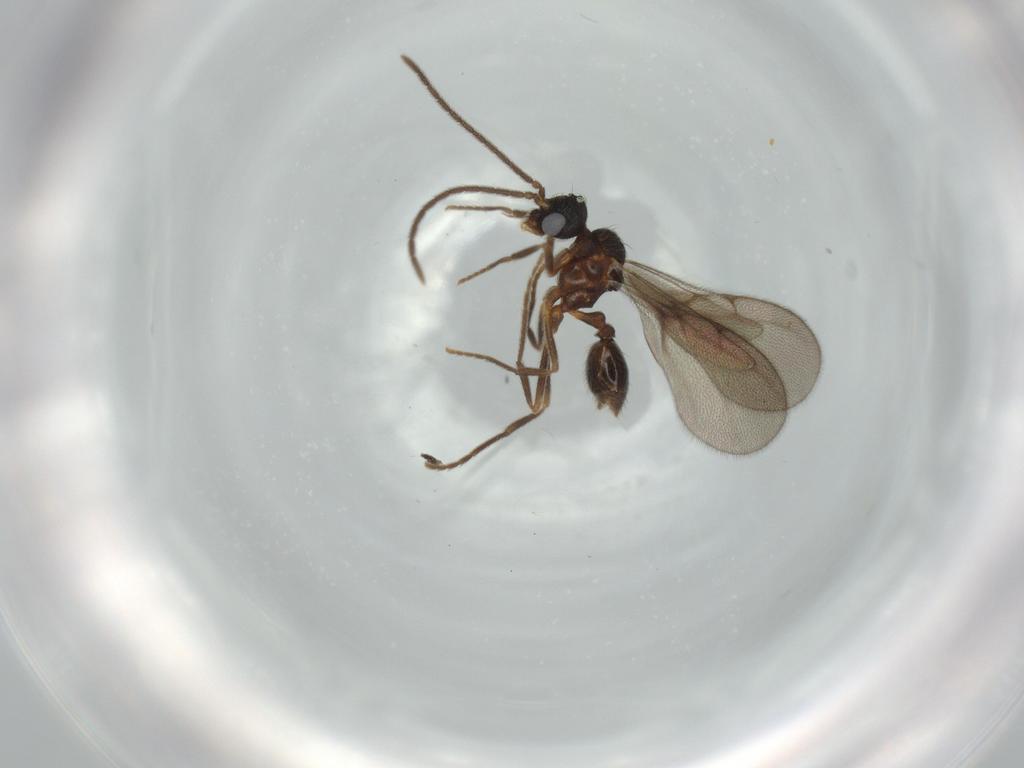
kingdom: Animalia
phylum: Arthropoda
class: Insecta
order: Hymenoptera
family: Formicidae
